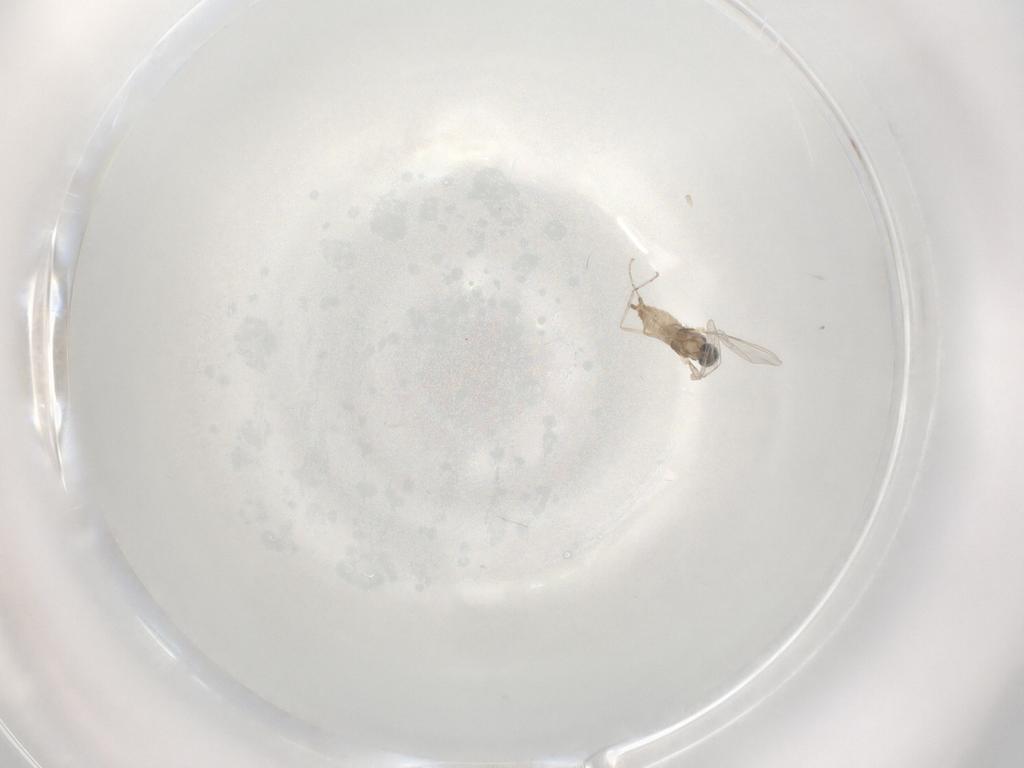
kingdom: Animalia
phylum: Arthropoda
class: Insecta
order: Diptera
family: Cecidomyiidae
